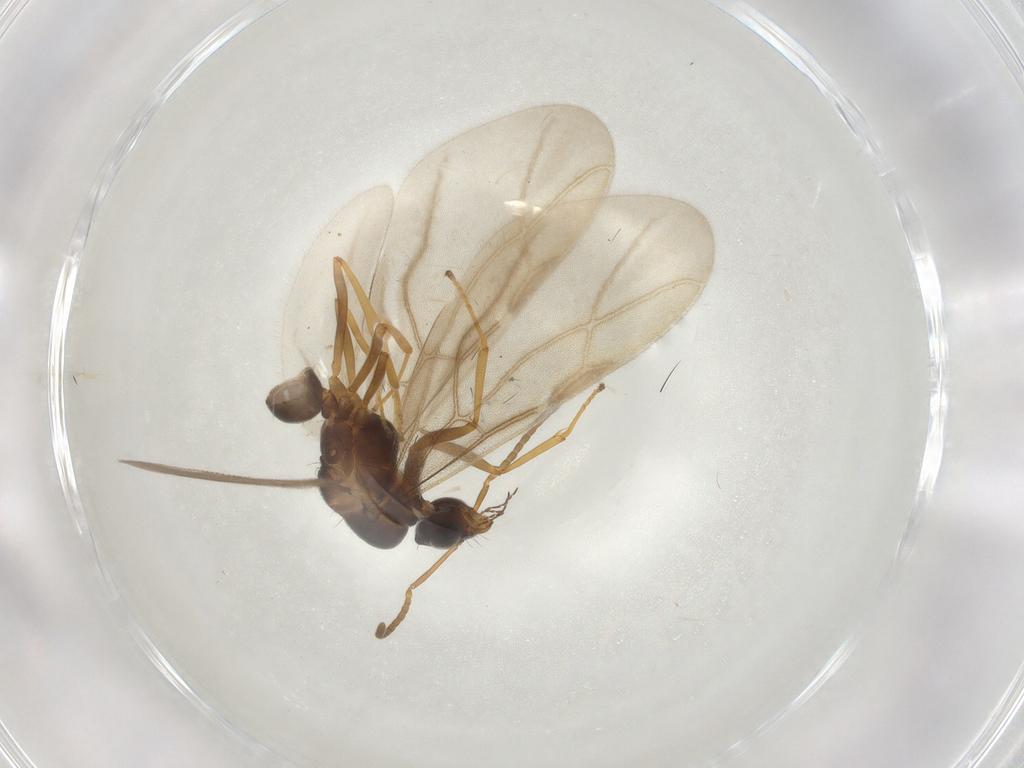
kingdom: Animalia
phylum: Arthropoda
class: Insecta
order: Hymenoptera
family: Ichneumonidae
